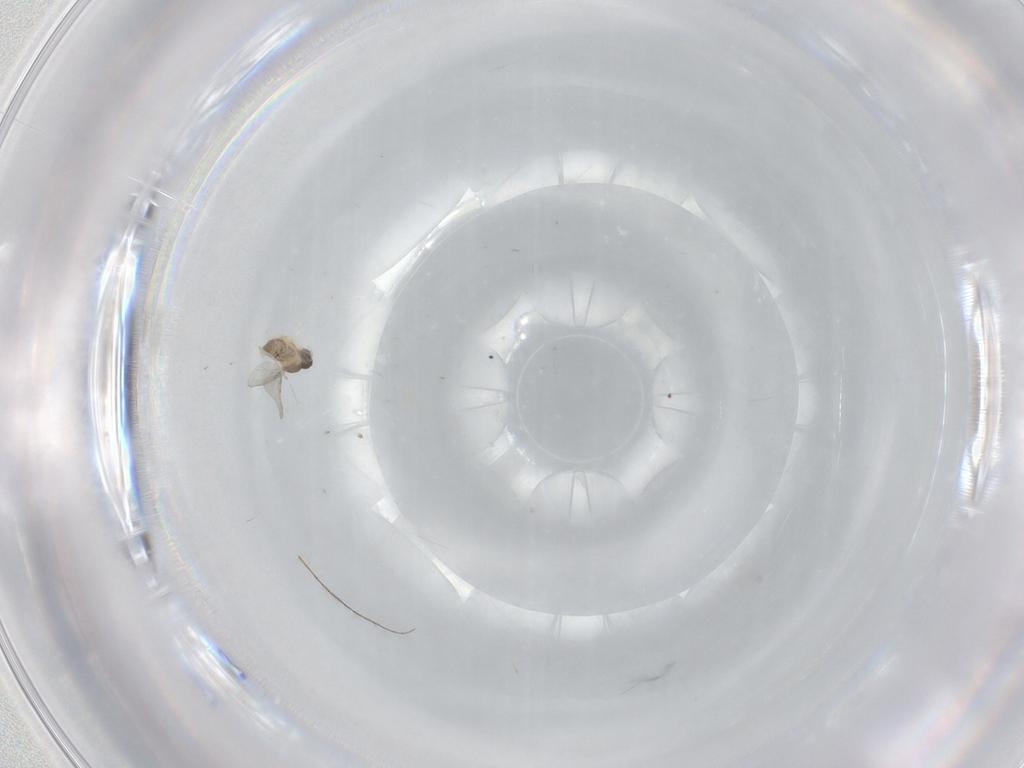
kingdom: Animalia
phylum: Arthropoda
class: Insecta
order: Diptera
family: Cecidomyiidae
